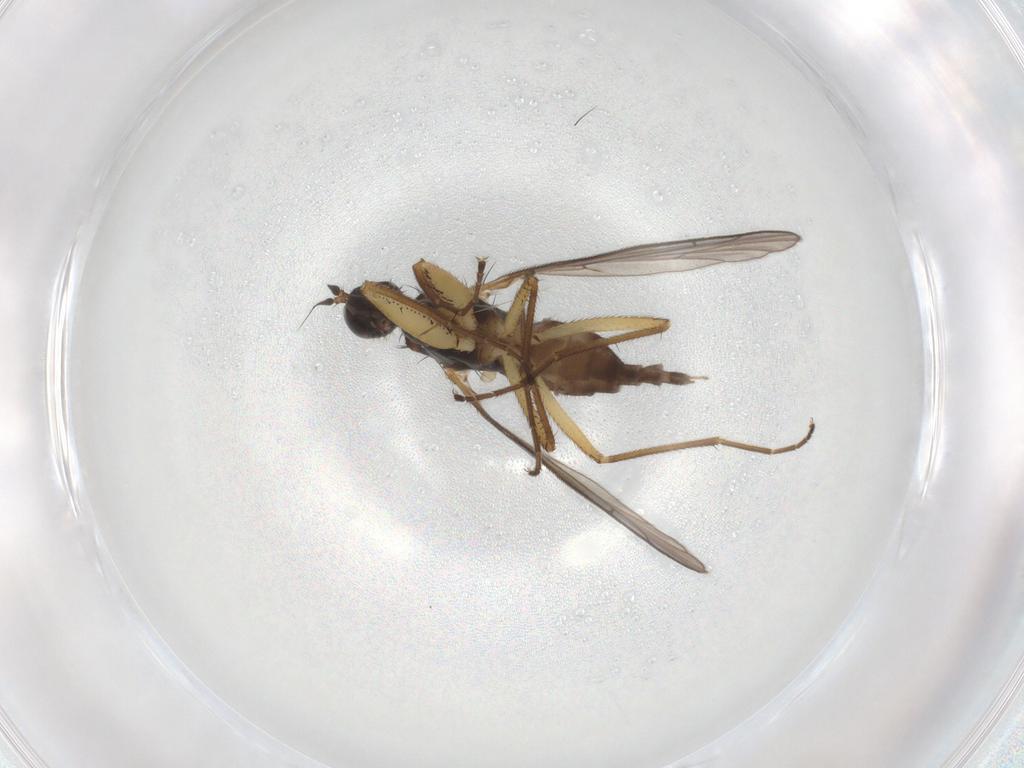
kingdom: Animalia
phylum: Arthropoda
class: Insecta
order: Diptera
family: Empididae
